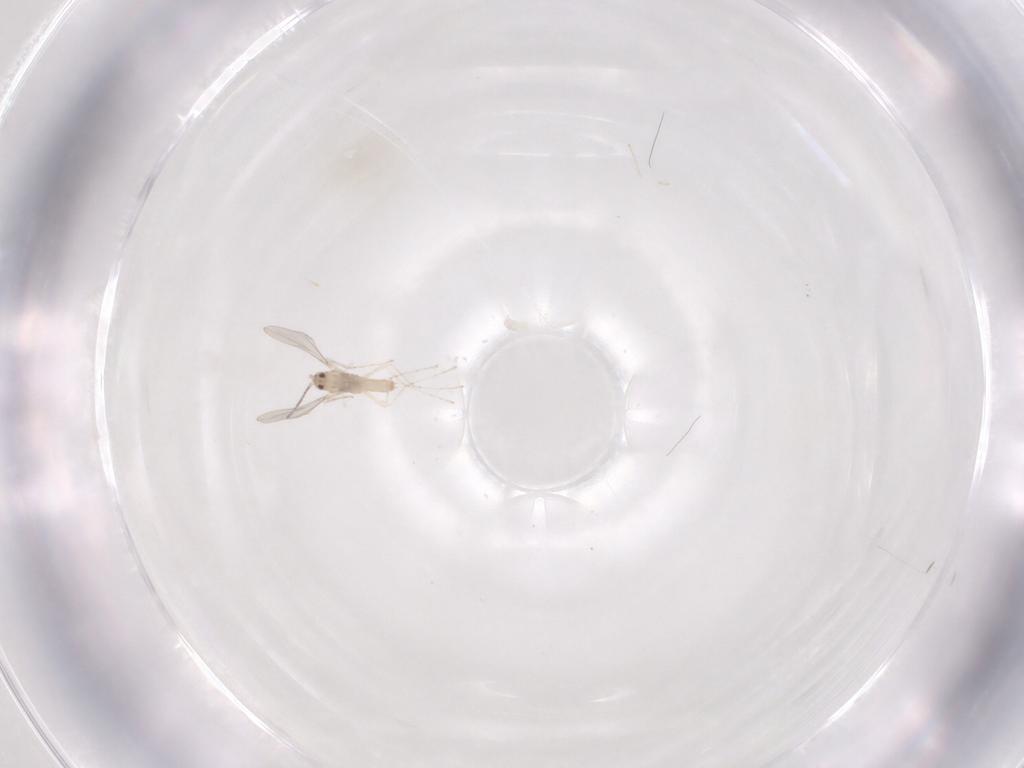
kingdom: Animalia
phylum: Arthropoda
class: Insecta
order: Diptera
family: Cecidomyiidae
